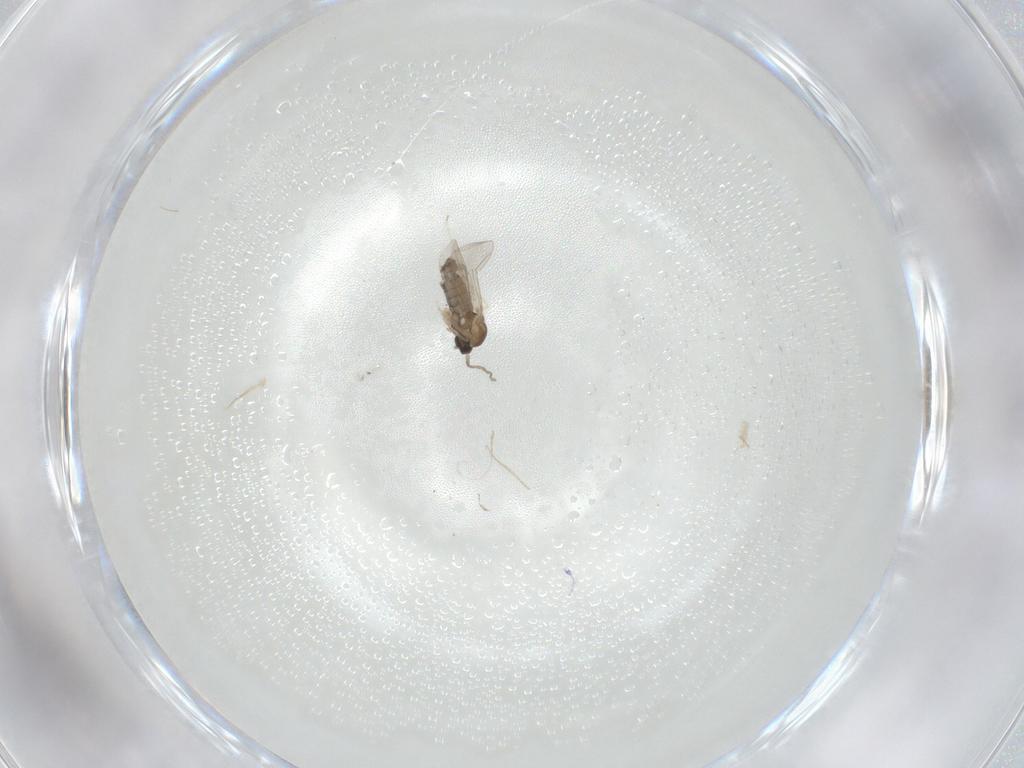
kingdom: Animalia
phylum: Arthropoda
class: Insecta
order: Diptera
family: Cecidomyiidae
